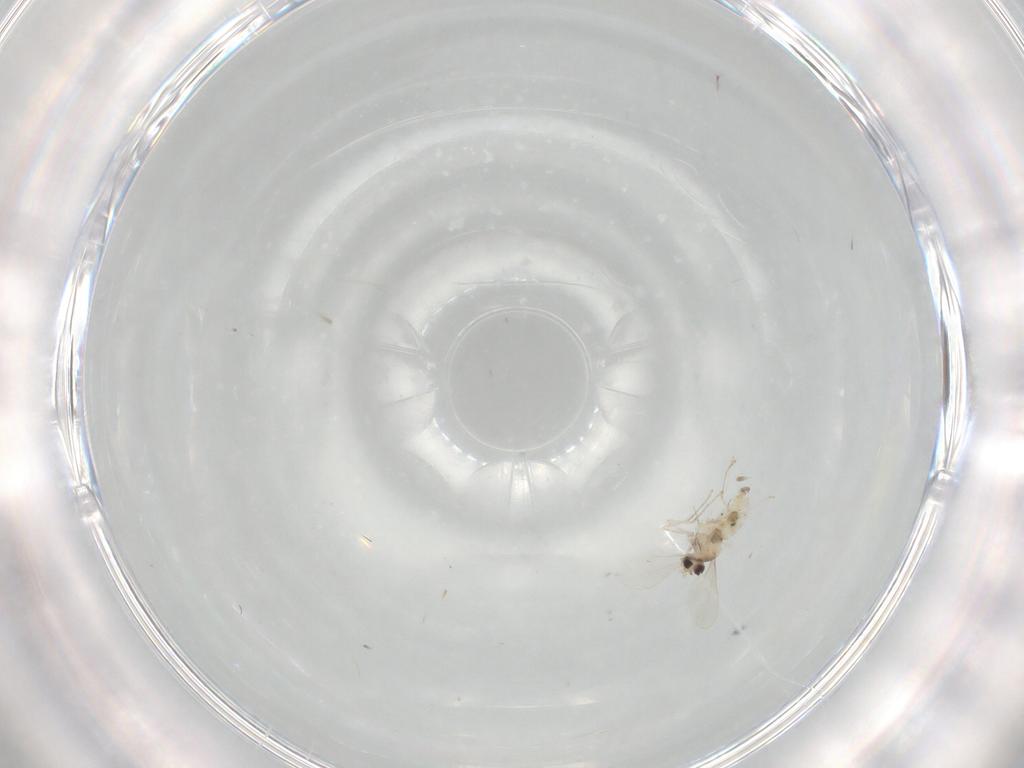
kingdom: Animalia
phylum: Arthropoda
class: Insecta
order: Diptera
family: Cecidomyiidae
